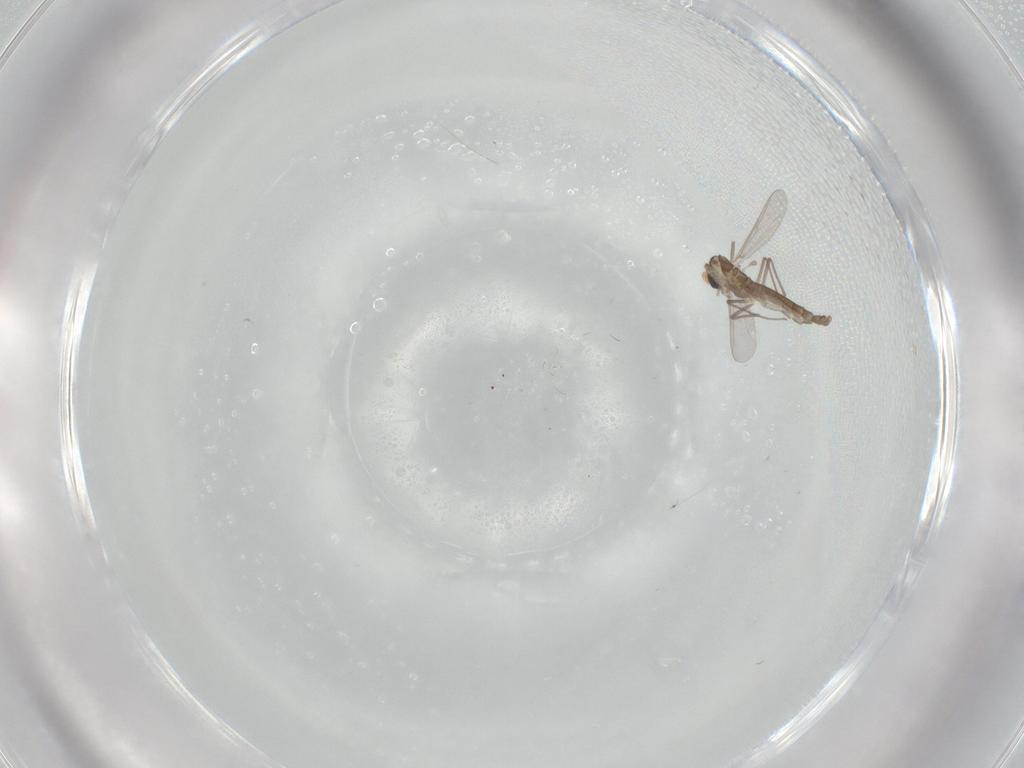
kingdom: Animalia
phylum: Arthropoda
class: Insecta
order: Diptera
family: Chironomidae
